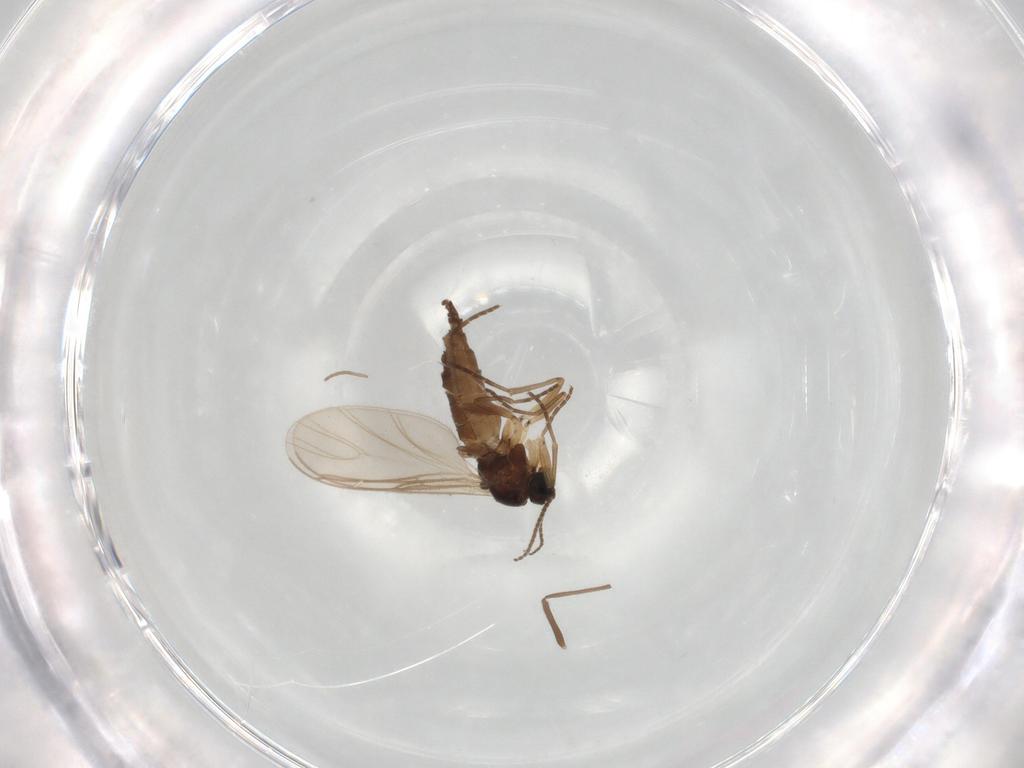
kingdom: Animalia
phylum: Arthropoda
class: Insecta
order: Diptera
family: Sciaridae
